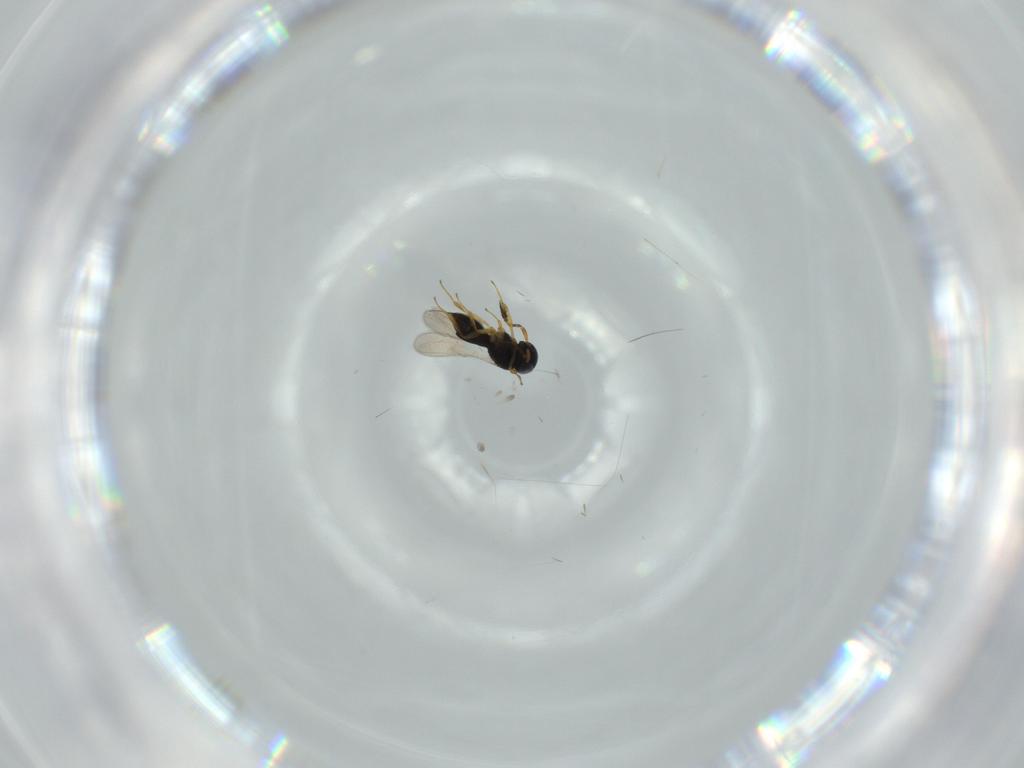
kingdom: Animalia
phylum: Arthropoda
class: Insecta
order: Hymenoptera
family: Scelionidae
